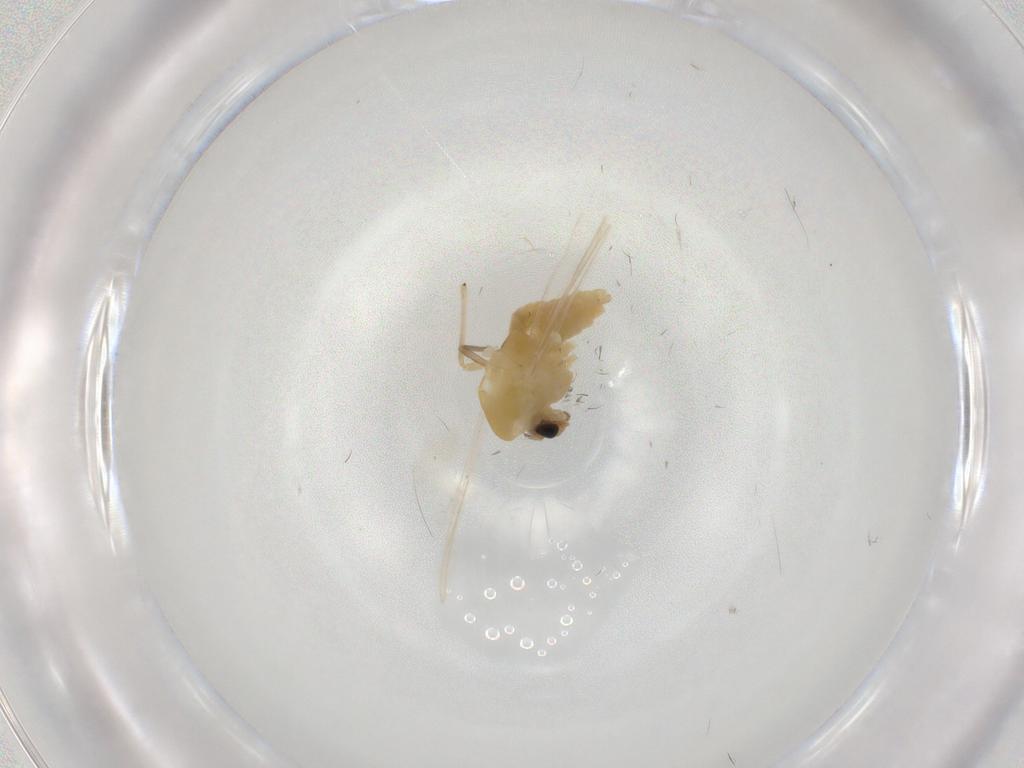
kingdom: Animalia
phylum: Arthropoda
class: Insecta
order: Diptera
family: Chironomidae
